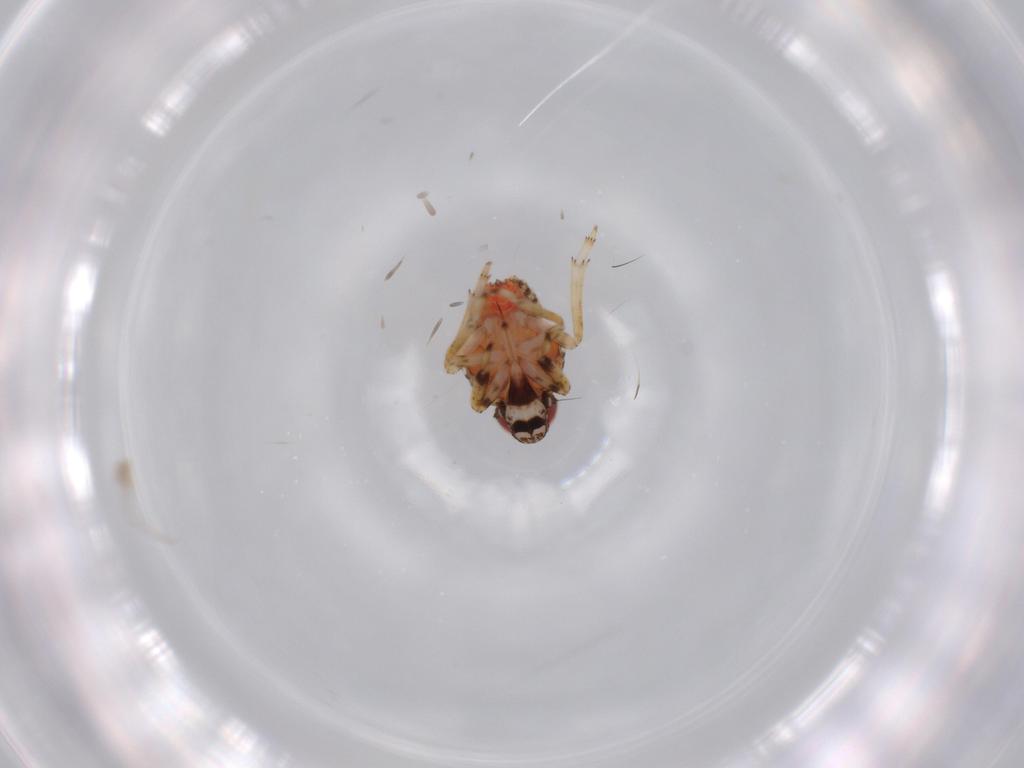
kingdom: Animalia
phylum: Arthropoda
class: Insecta
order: Hemiptera
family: Issidae
